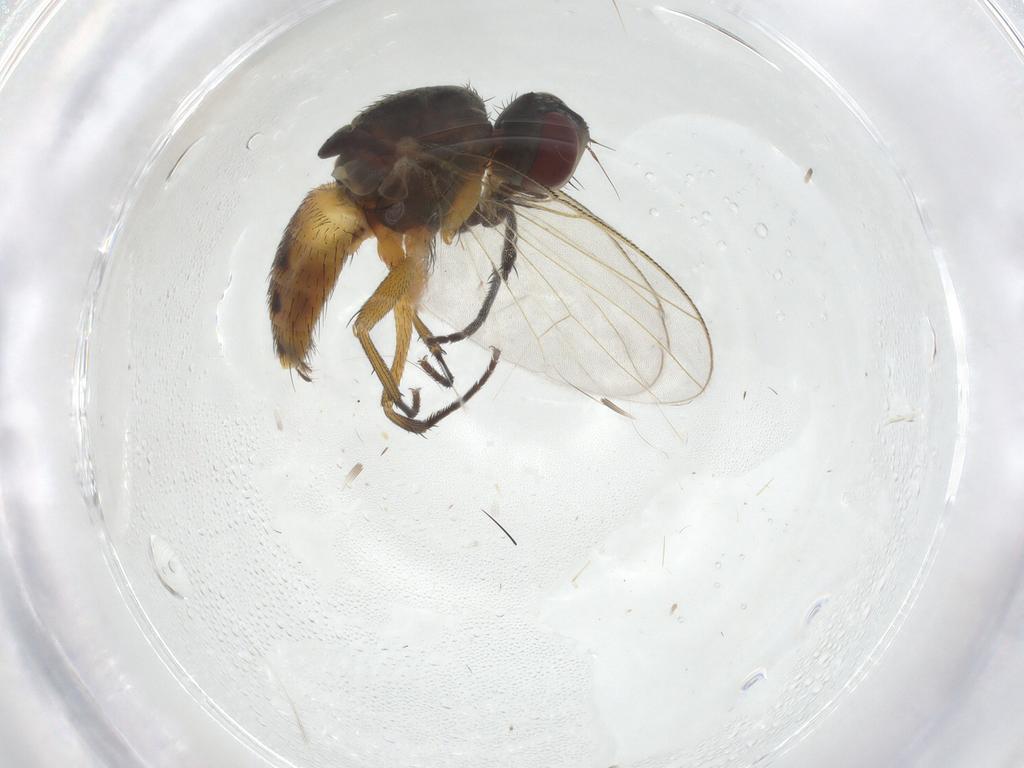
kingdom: Animalia
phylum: Arthropoda
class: Insecta
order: Diptera
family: Muscidae
